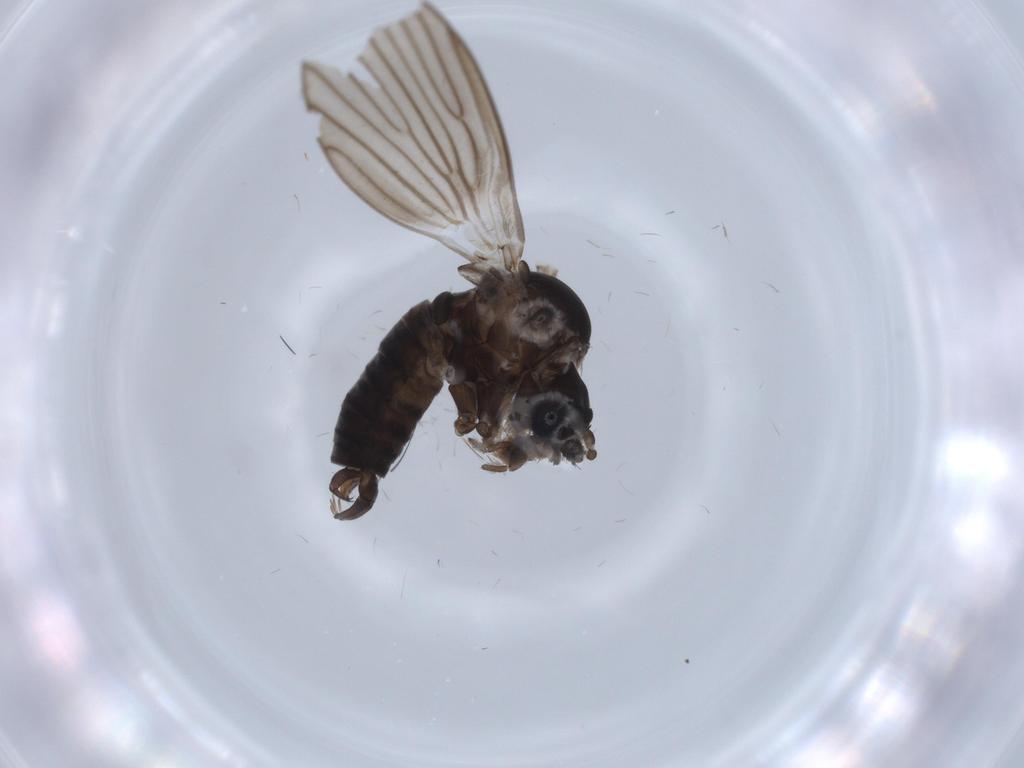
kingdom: Animalia
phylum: Arthropoda
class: Insecta
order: Diptera
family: Psychodidae
